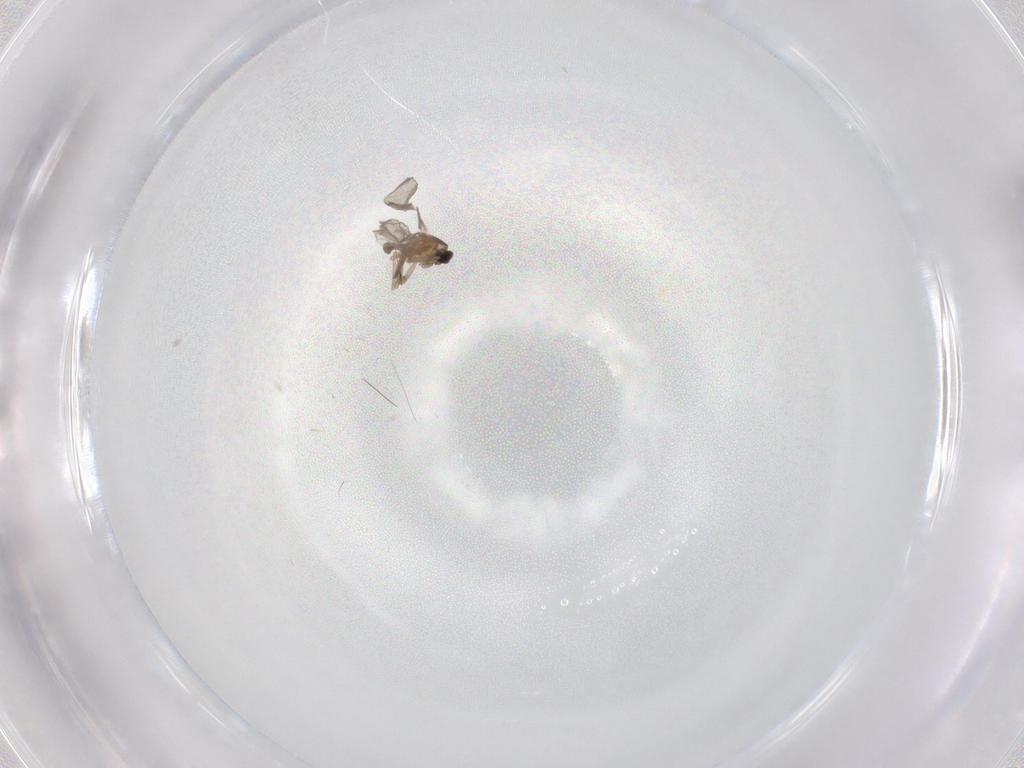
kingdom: Animalia
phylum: Arthropoda
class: Insecta
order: Diptera
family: Cecidomyiidae
